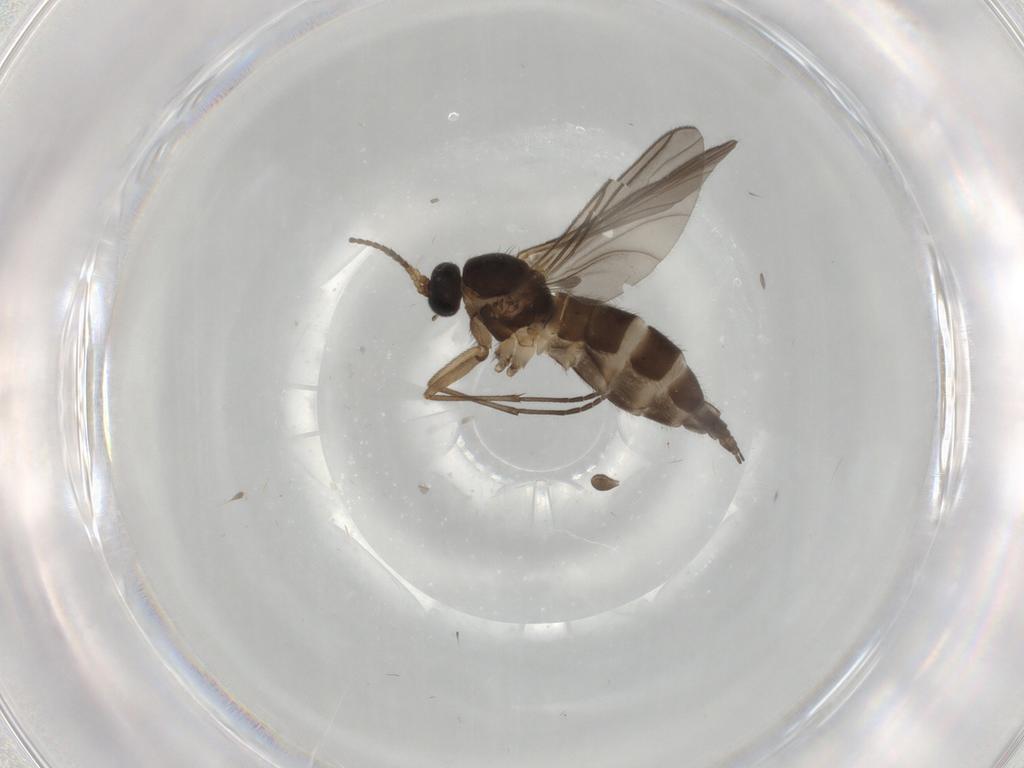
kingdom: Animalia
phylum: Arthropoda
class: Insecta
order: Diptera
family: Sciaridae
